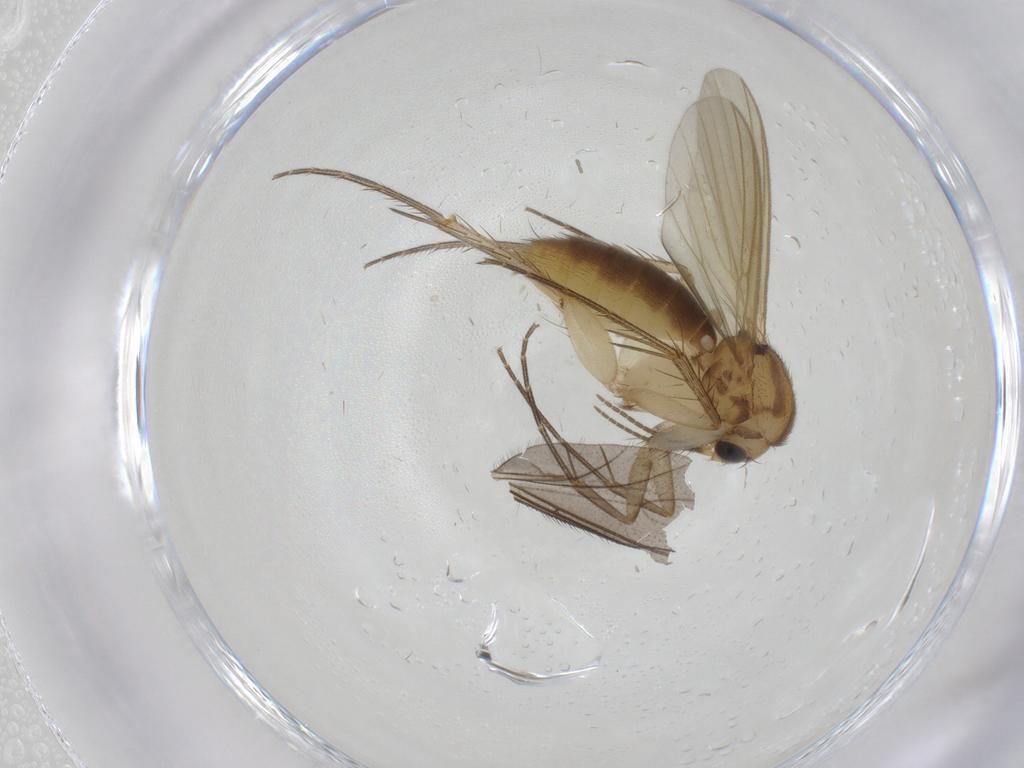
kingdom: Animalia
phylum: Arthropoda
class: Insecta
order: Diptera
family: Mycetophilidae
